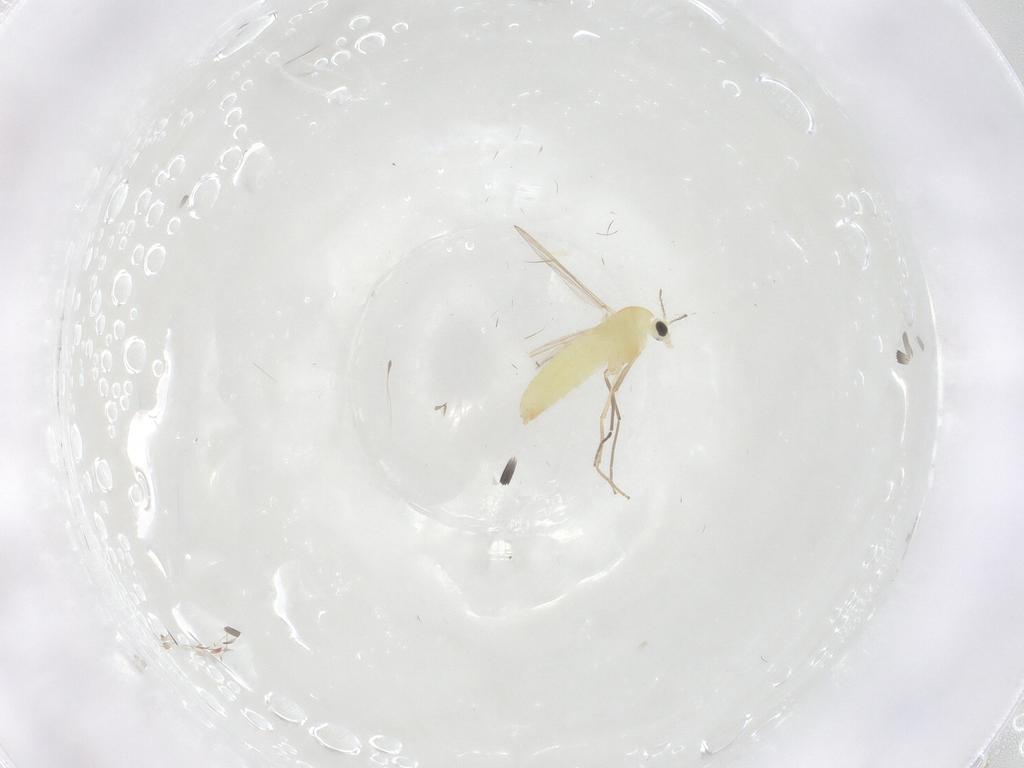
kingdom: Animalia
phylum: Arthropoda
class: Insecta
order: Diptera
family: Chironomidae
